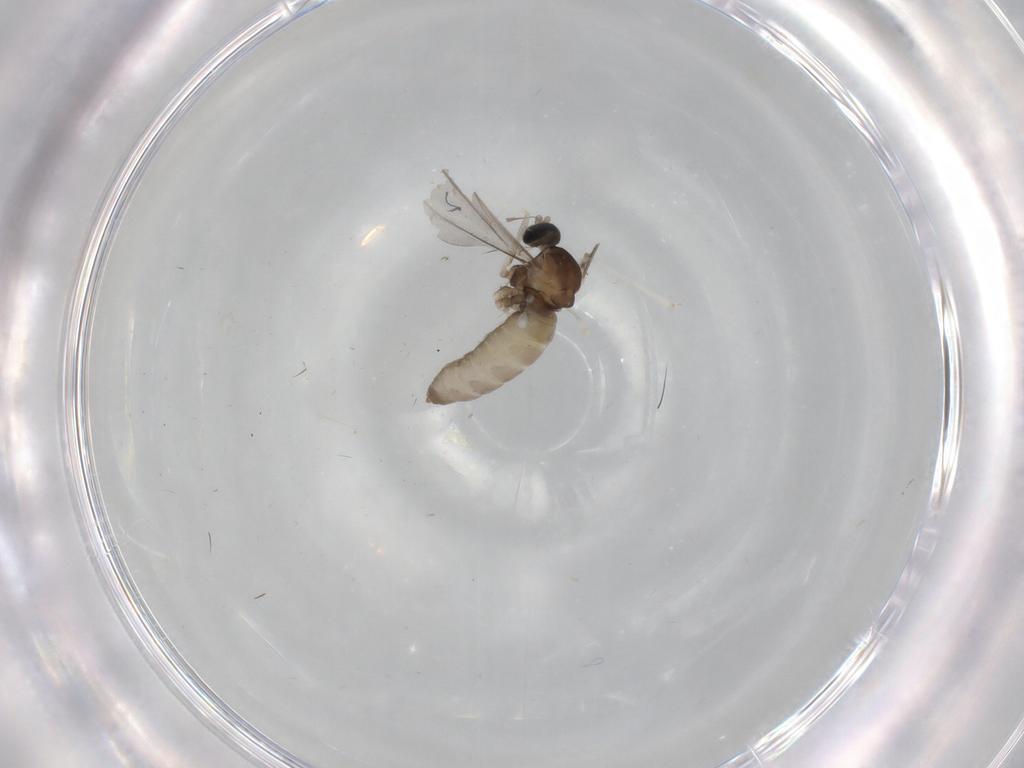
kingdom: Animalia
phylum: Arthropoda
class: Insecta
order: Diptera
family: Cecidomyiidae
